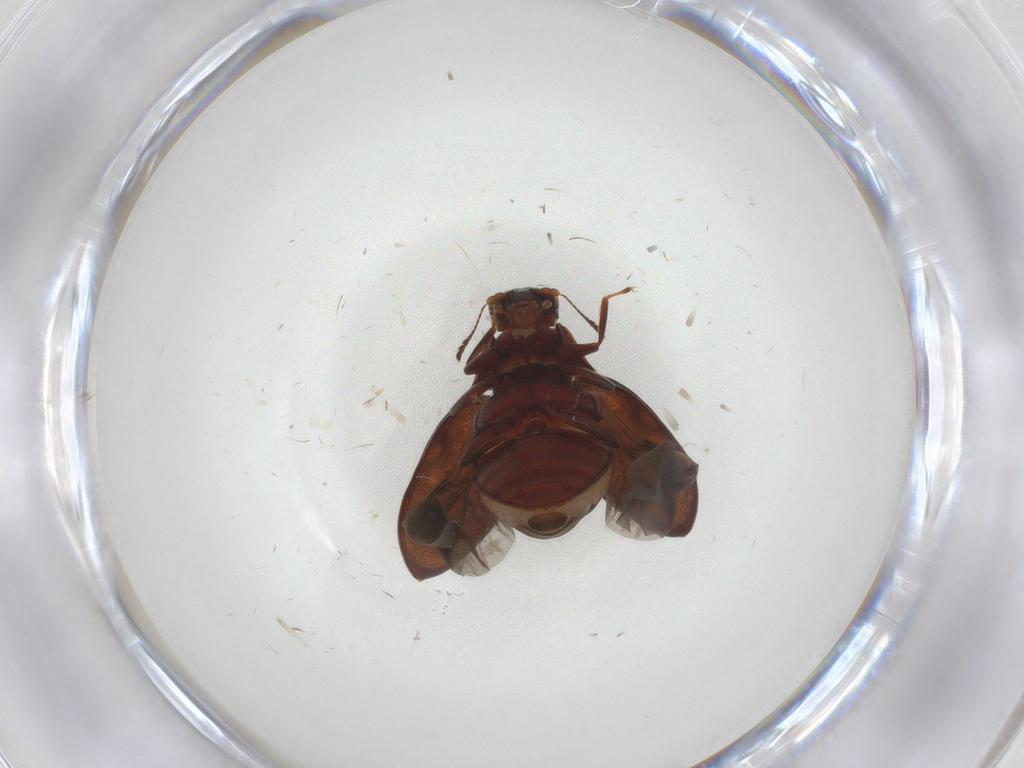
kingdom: Animalia
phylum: Arthropoda
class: Insecta
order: Coleoptera
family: Limnichidae
